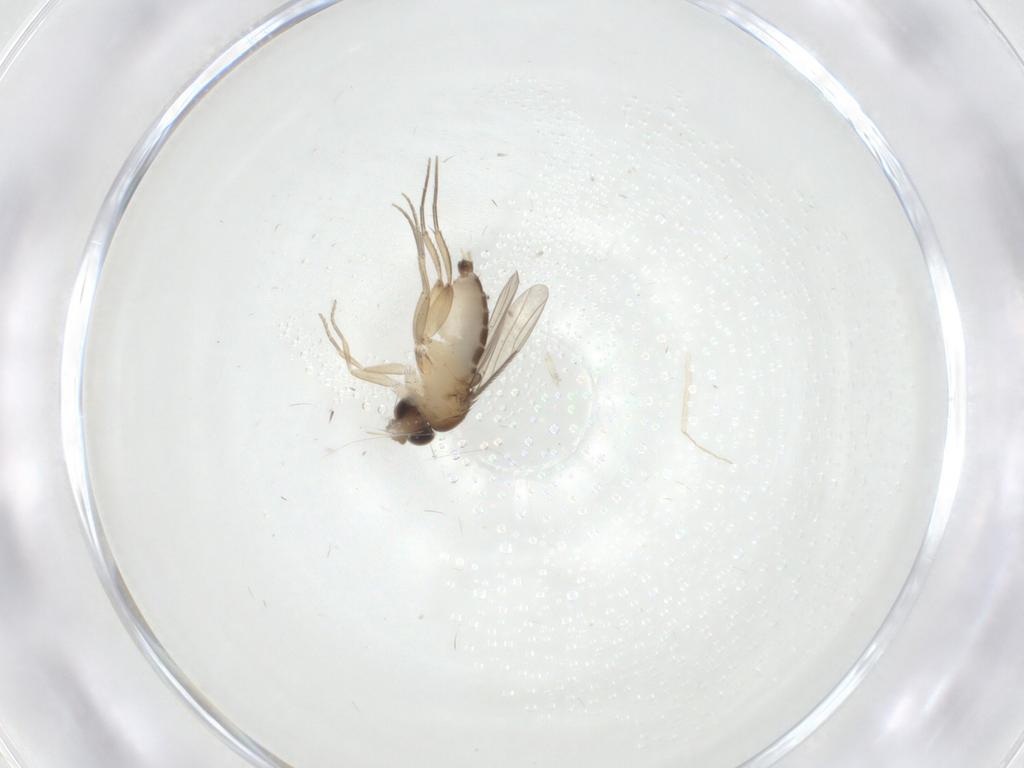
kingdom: Animalia
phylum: Arthropoda
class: Insecta
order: Diptera
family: Phoridae
